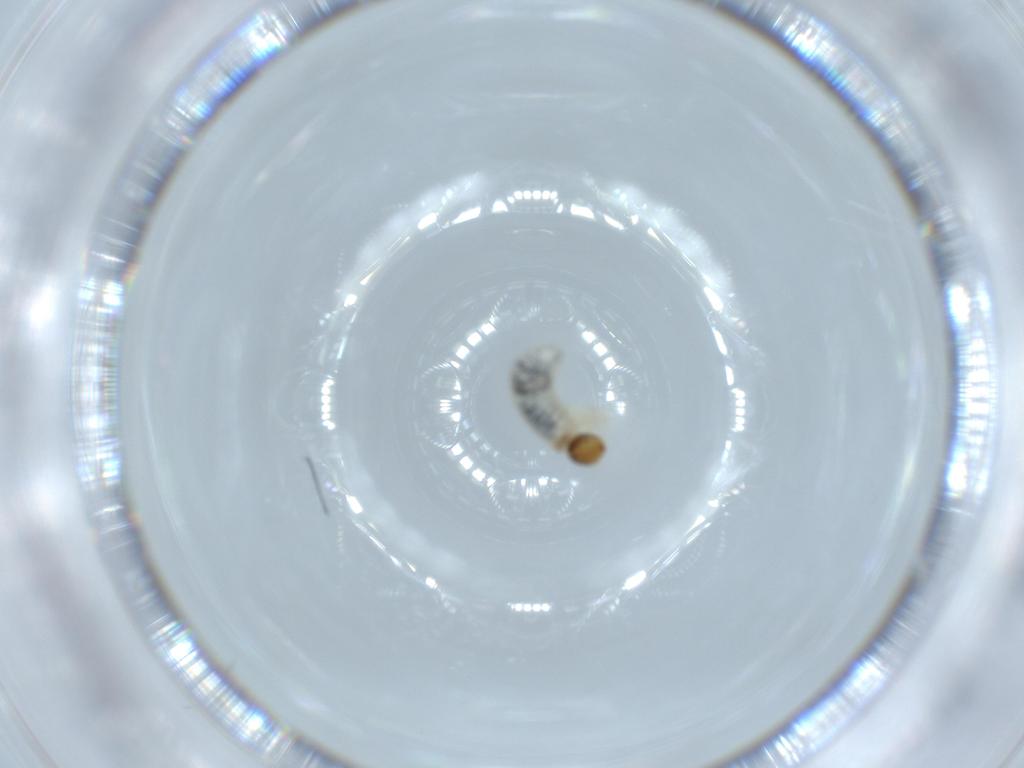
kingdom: Animalia
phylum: Arthropoda
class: Insecta
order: Coleoptera
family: Chrysomelidae
